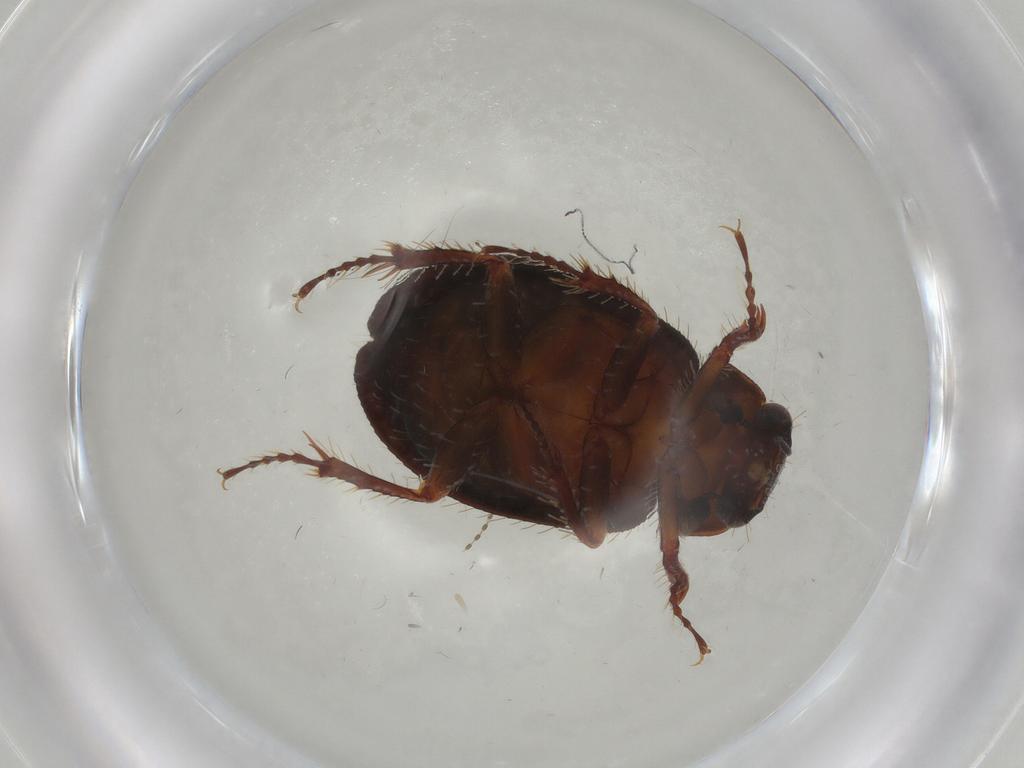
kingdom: Animalia
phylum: Arthropoda
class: Insecta
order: Coleoptera
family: Hybosoridae
